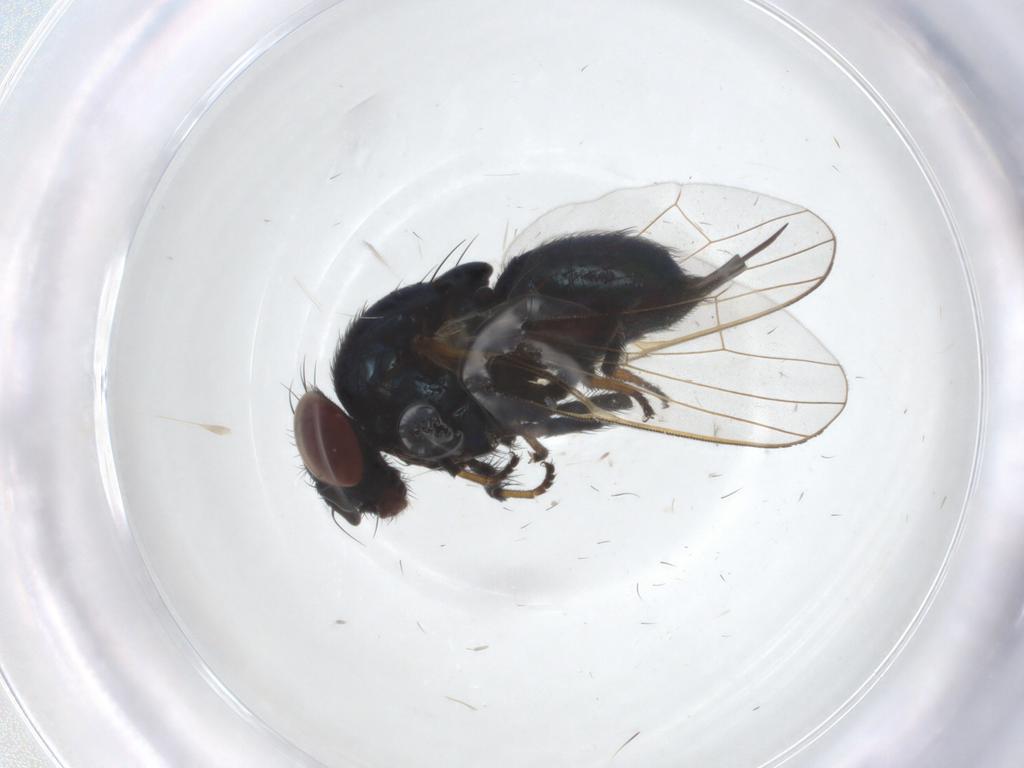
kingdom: Animalia
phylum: Arthropoda
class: Insecta
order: Diptera
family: Lonchaeidae
